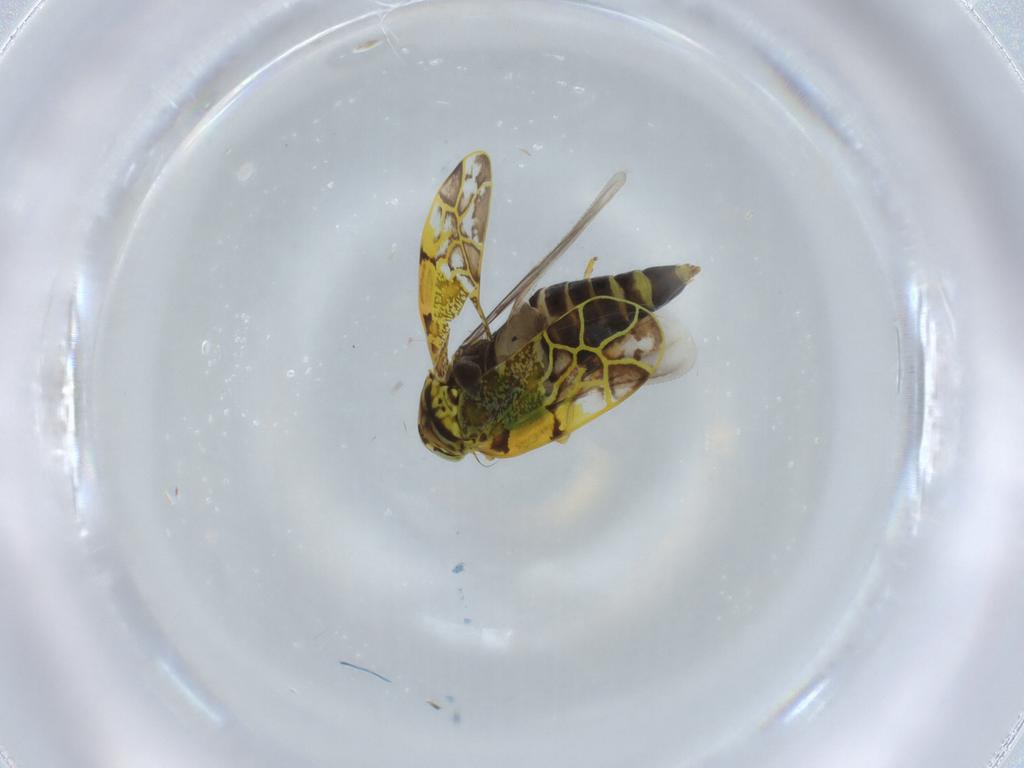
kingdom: Animalia
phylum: Arthropoda
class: Insecta
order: Hemiptera
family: Cicadellidae
